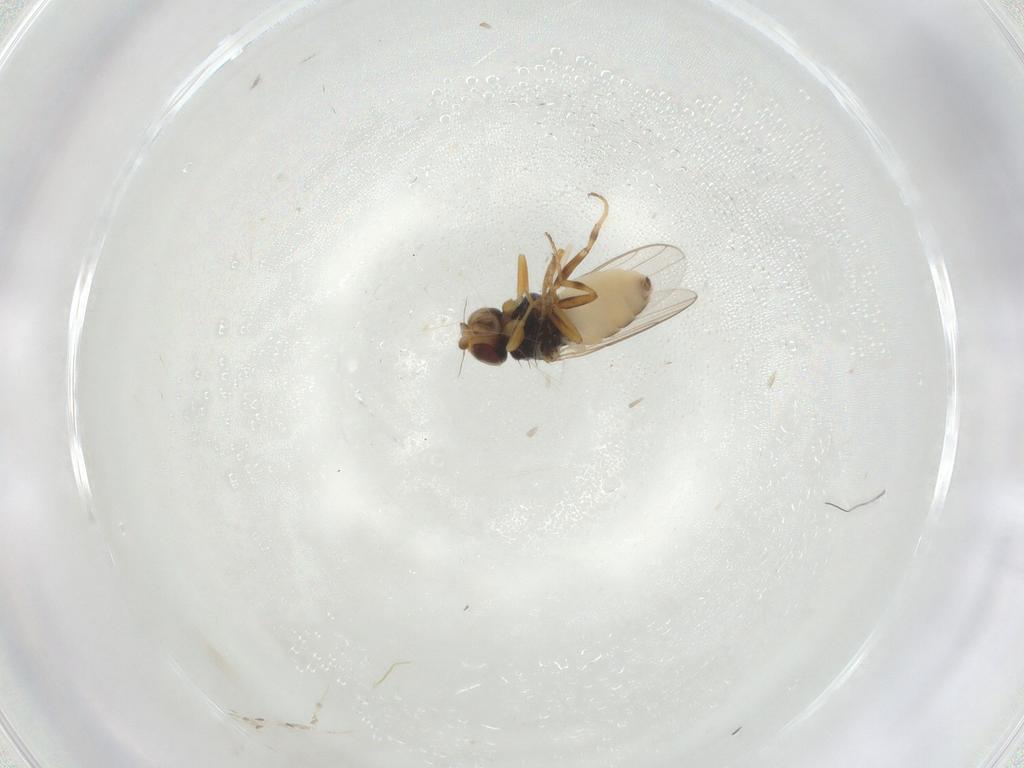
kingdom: Animalia
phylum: Arthropoda
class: Insecta
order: Diptera
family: Chloropidae
